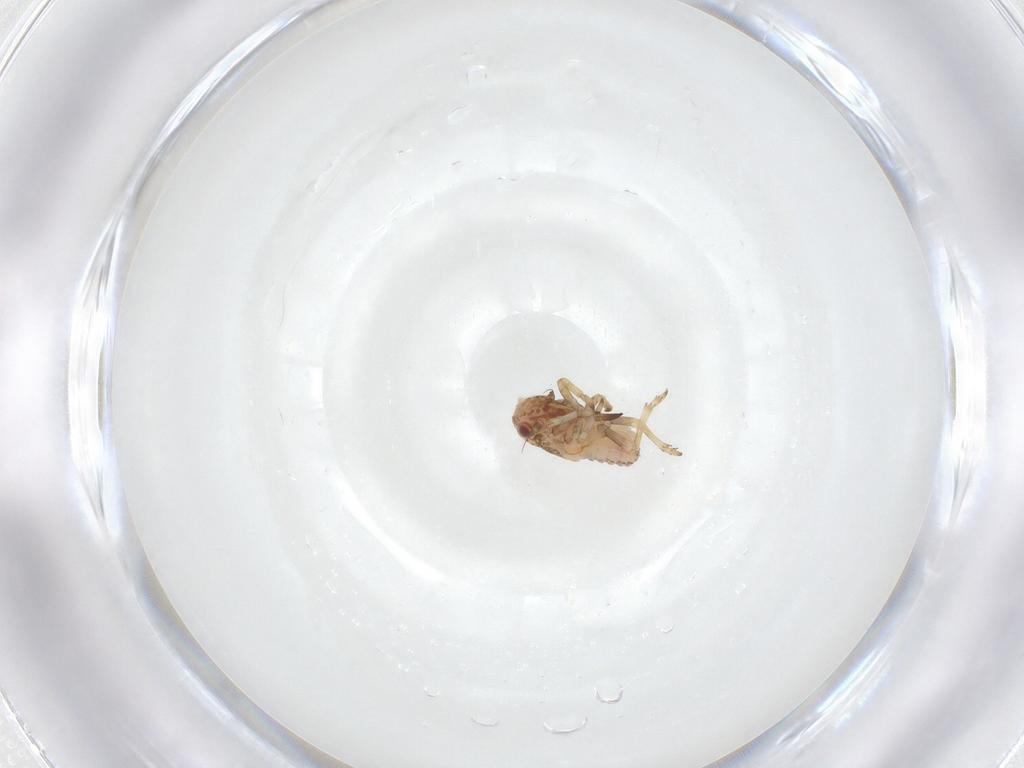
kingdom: Animalia
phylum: Arthropoda
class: Insecta
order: Hemiptera
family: Tropiduchidae
